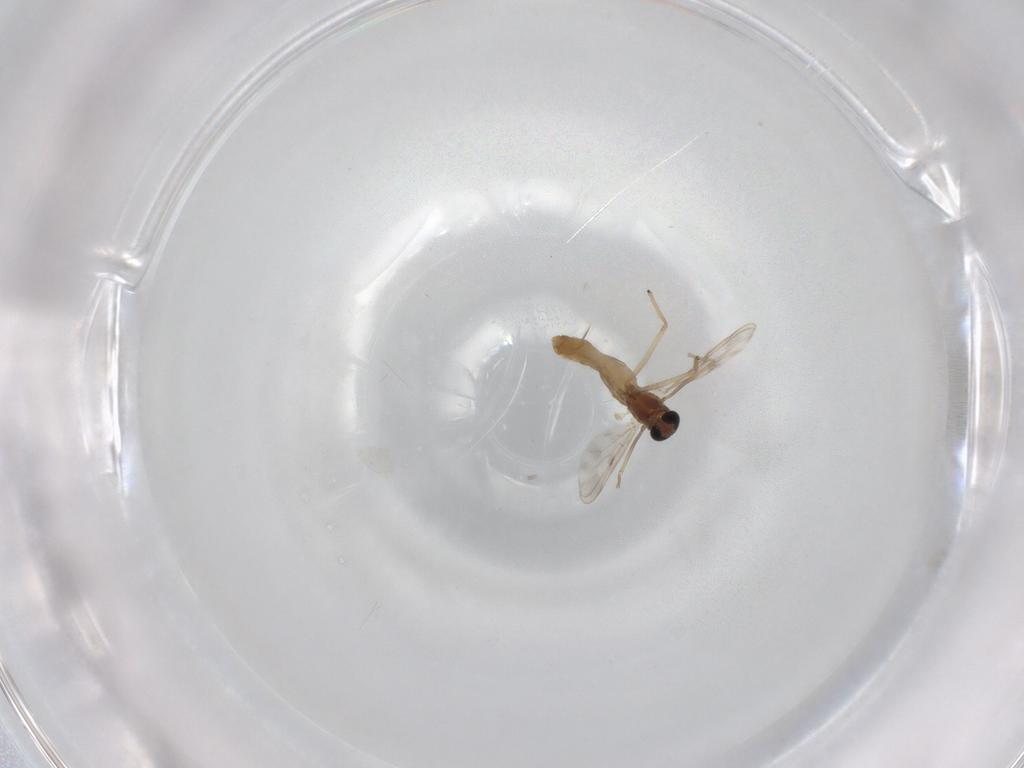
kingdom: Animalia
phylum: Arthropoda
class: Insecta
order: Diptera
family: Chironomidae
